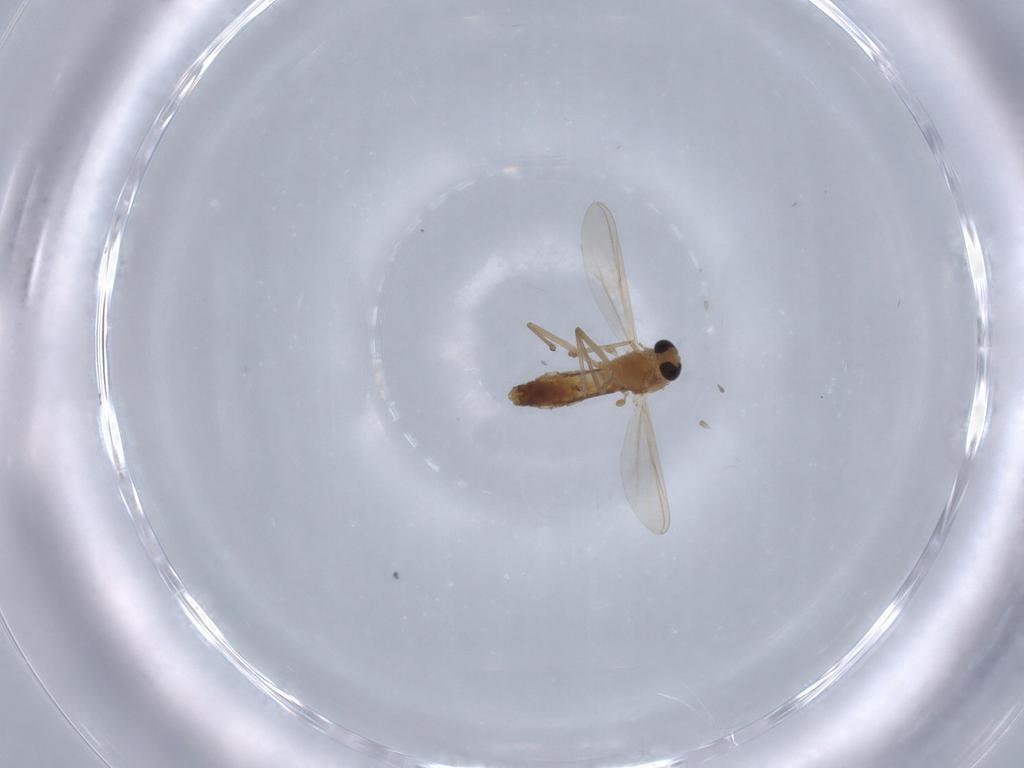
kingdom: Animalia
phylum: Arthropoda
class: Insecta
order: Diptera
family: Chironomidae
